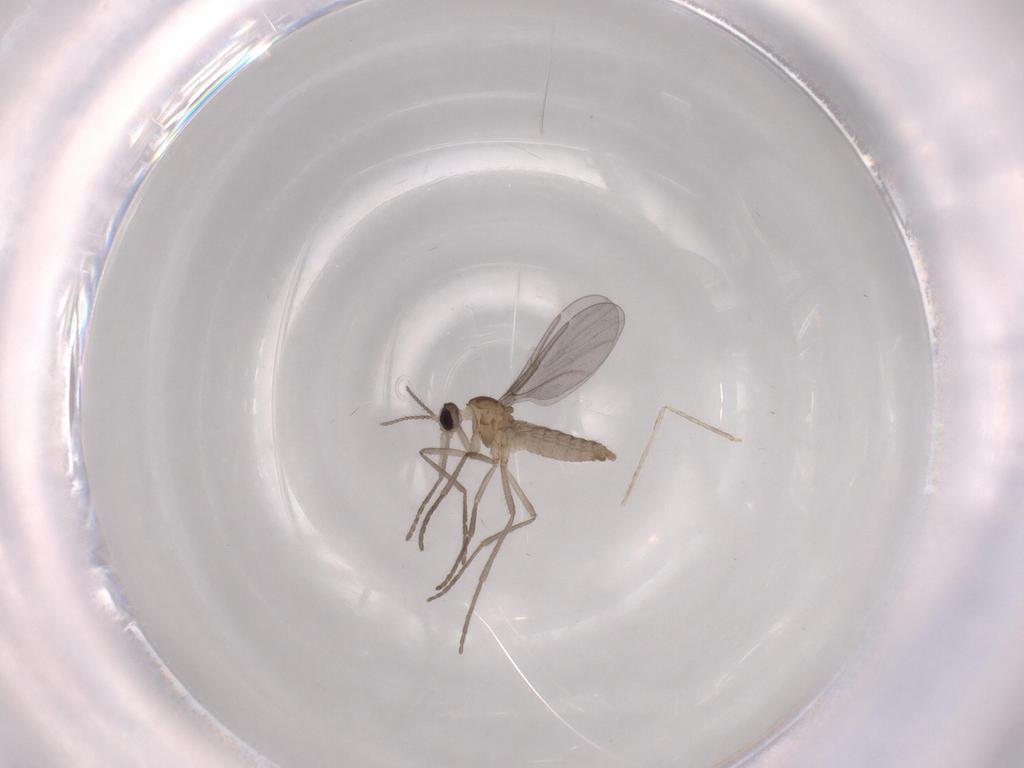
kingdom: Animalia
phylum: Arthropoda
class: Insecta
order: Diptera
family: Cecidomyiidae
